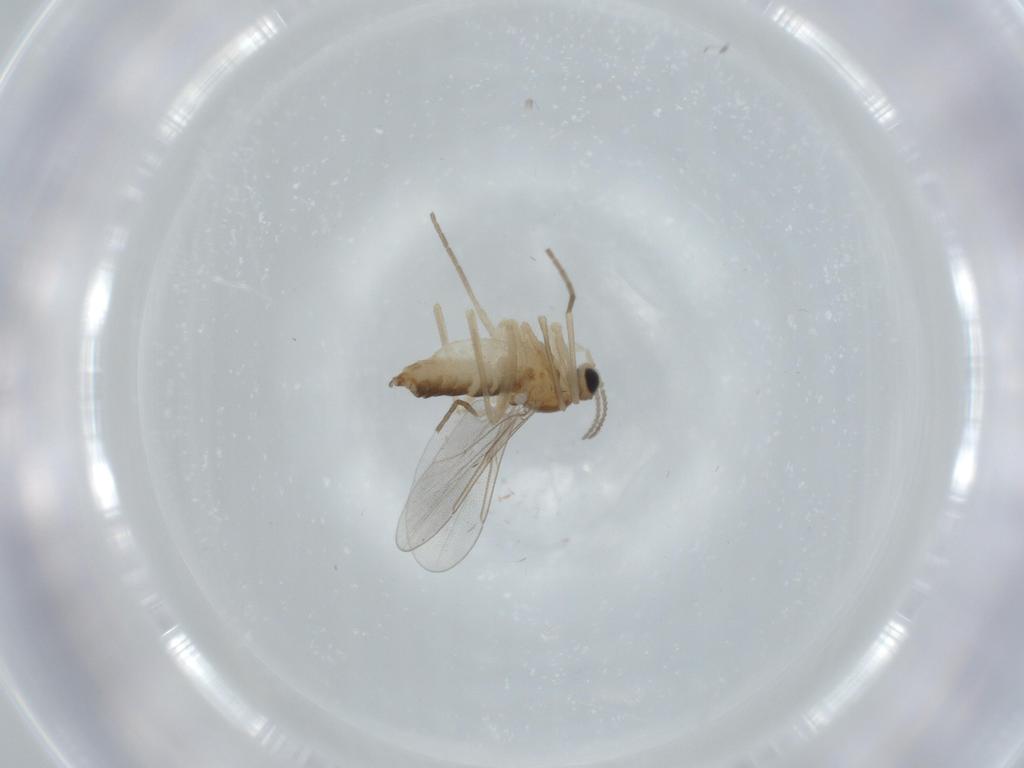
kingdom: Animalia
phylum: Arthropoda
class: Insecta
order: Diptera
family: Cecidomyiidae
